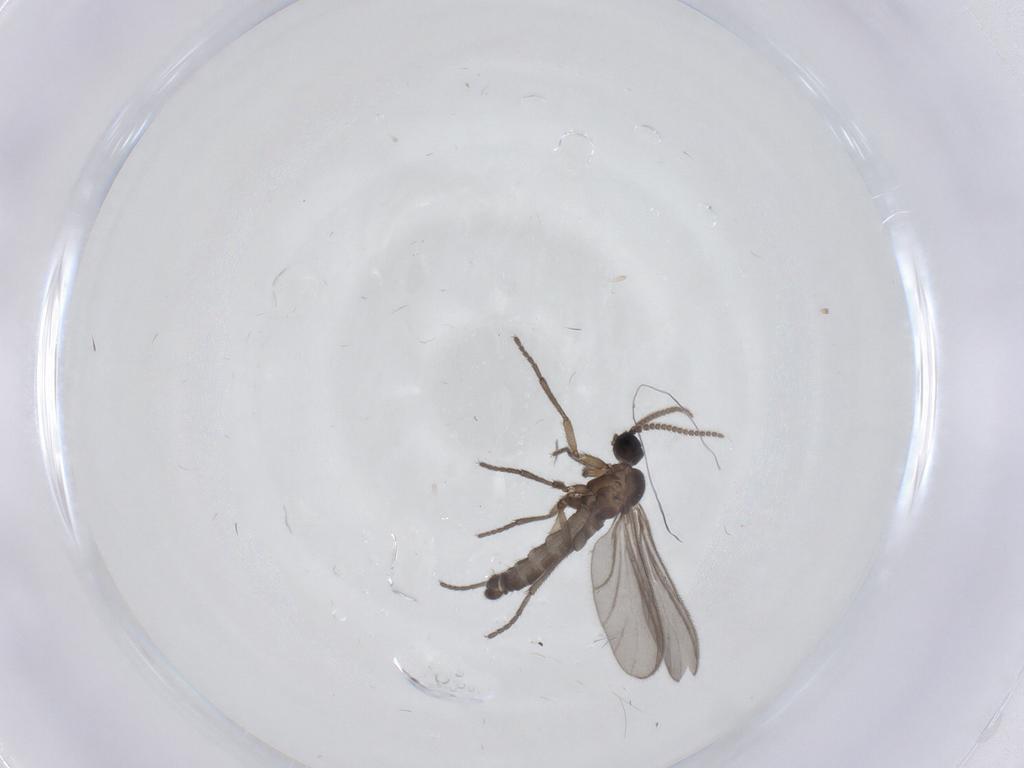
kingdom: Animalia
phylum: Arthropoda
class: Insecta
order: Diptera
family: Sciaridae
